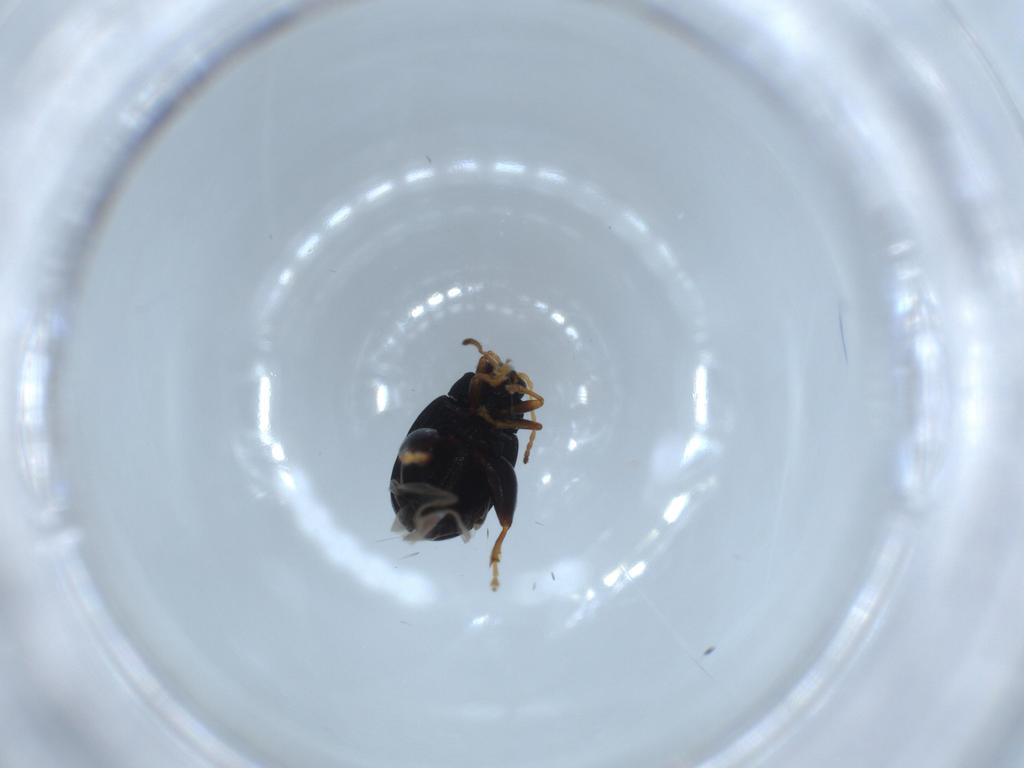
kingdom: Animalia
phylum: Arthropoda
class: Insecta
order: Coleoptera
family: Chrysomelidae
